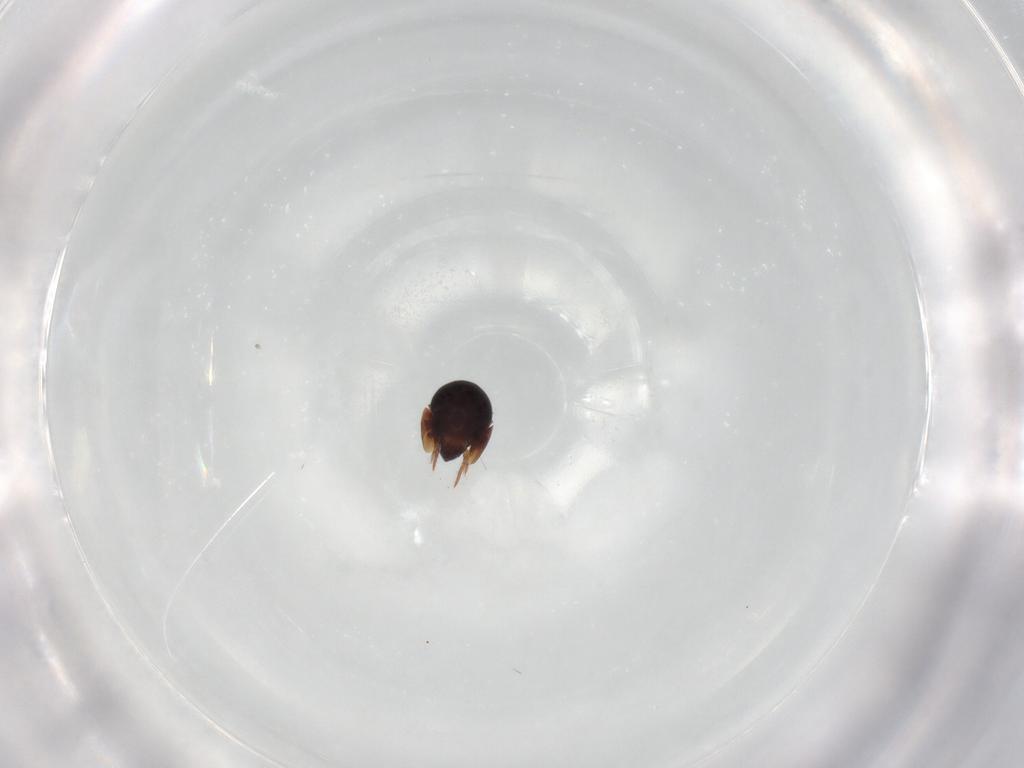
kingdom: Animalia
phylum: Arthropoda
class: Arachnida
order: Sarcoptiformes
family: Ceratozetidae
